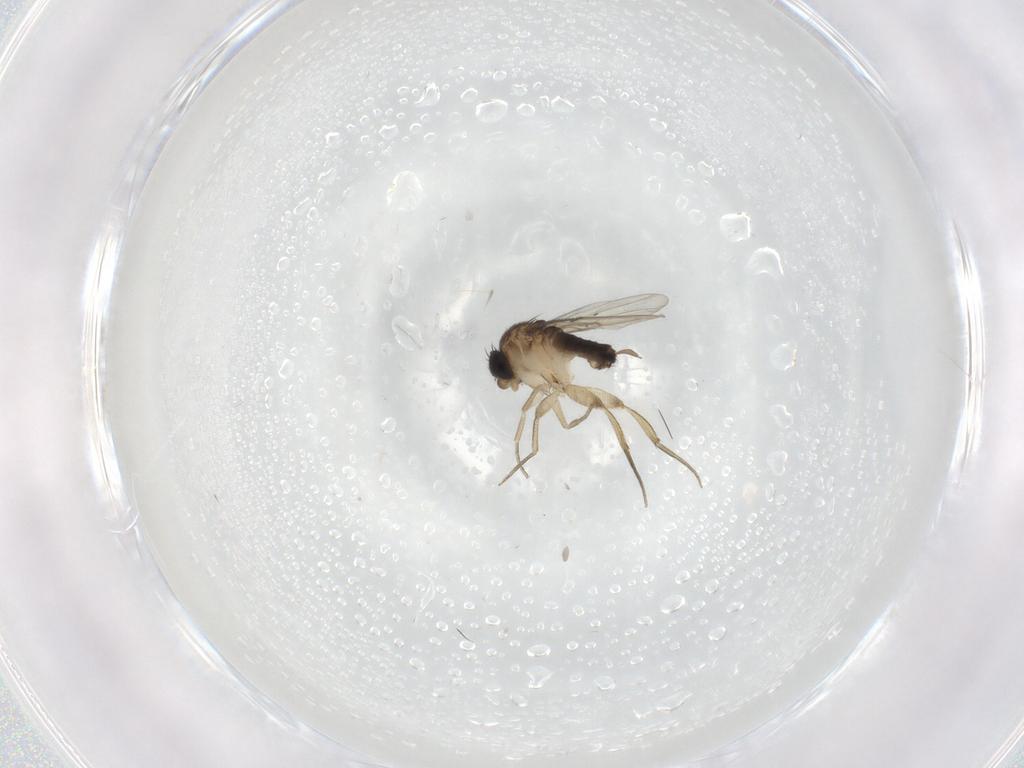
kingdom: Animalia
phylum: Arthropoda
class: Insecta
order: Diptera
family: Cecidomyiidae
